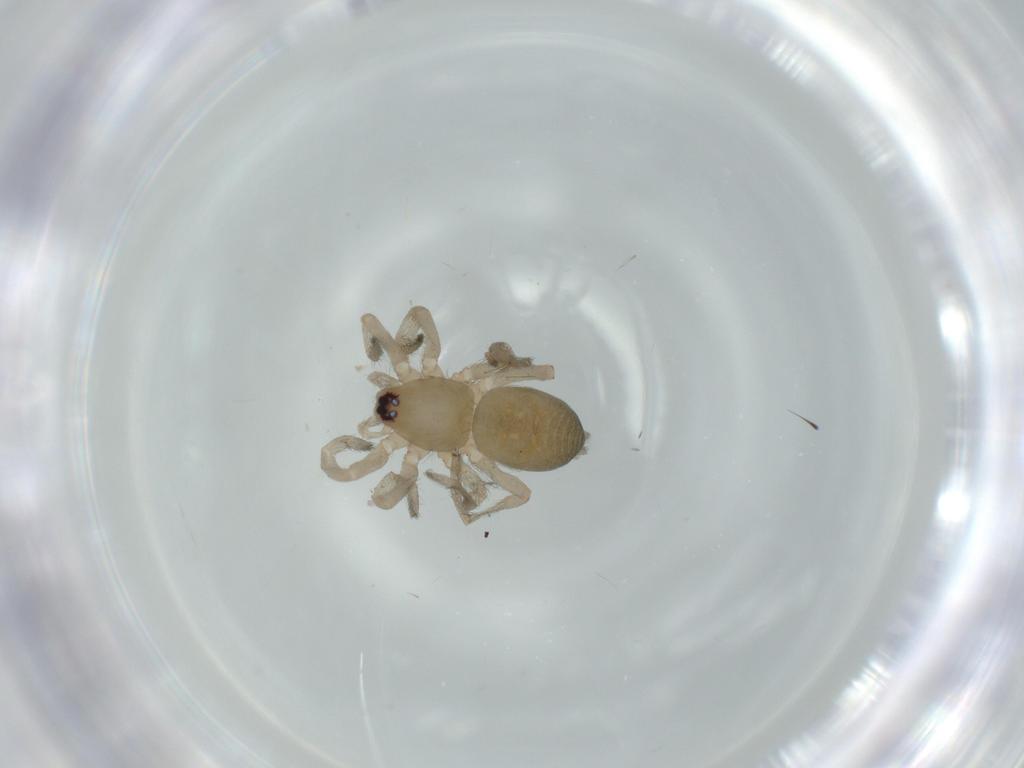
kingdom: Animalia
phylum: Arthropoda
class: Arachnida
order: Araneae
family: Gnaphosidae
